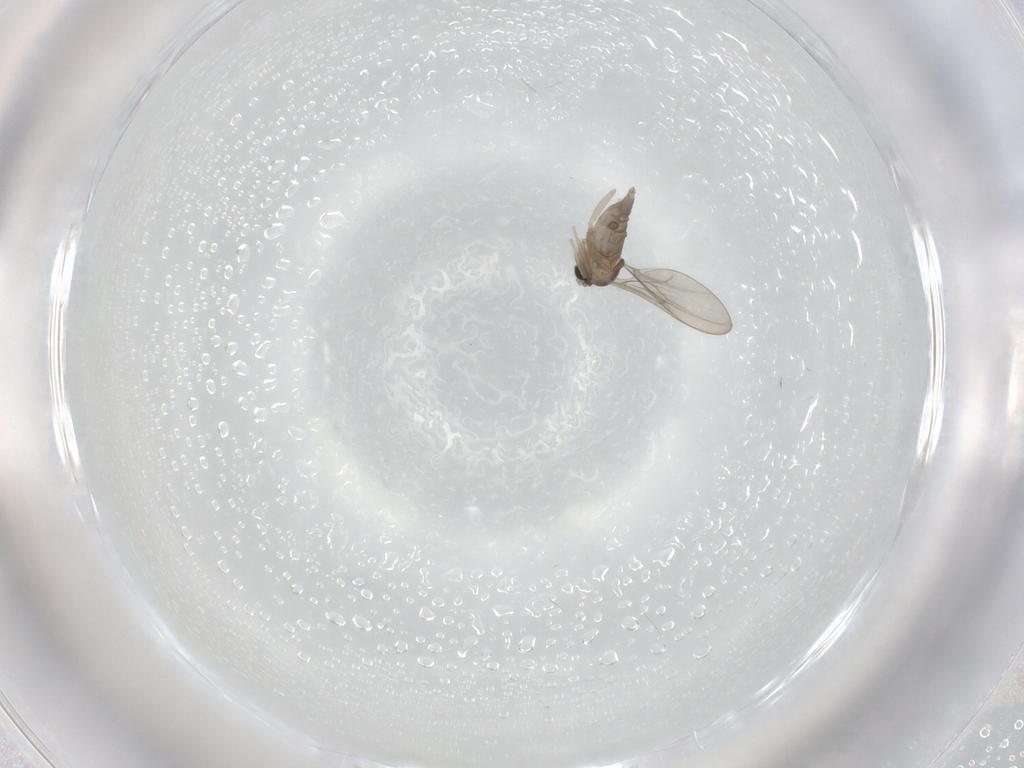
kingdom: Animalia
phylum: Arthropoda
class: Insecta
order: Diptera
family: Cecidomyiidae
